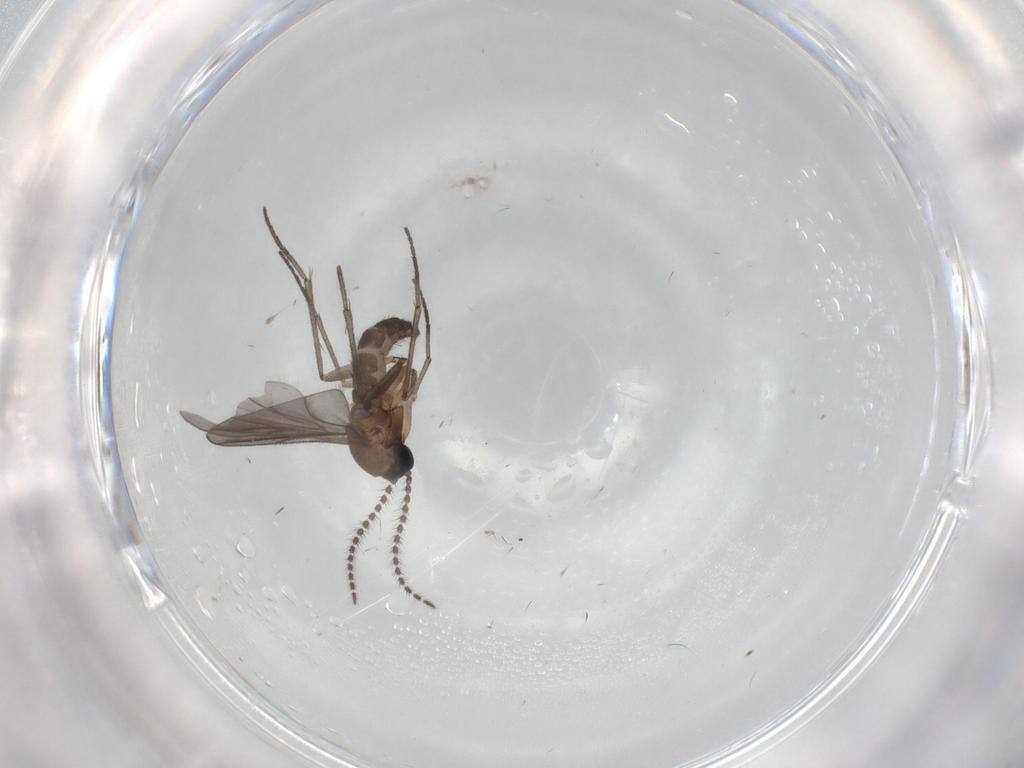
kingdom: Animalia
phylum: Arthropoda
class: Insecta
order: Diptera
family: Sciaridae
